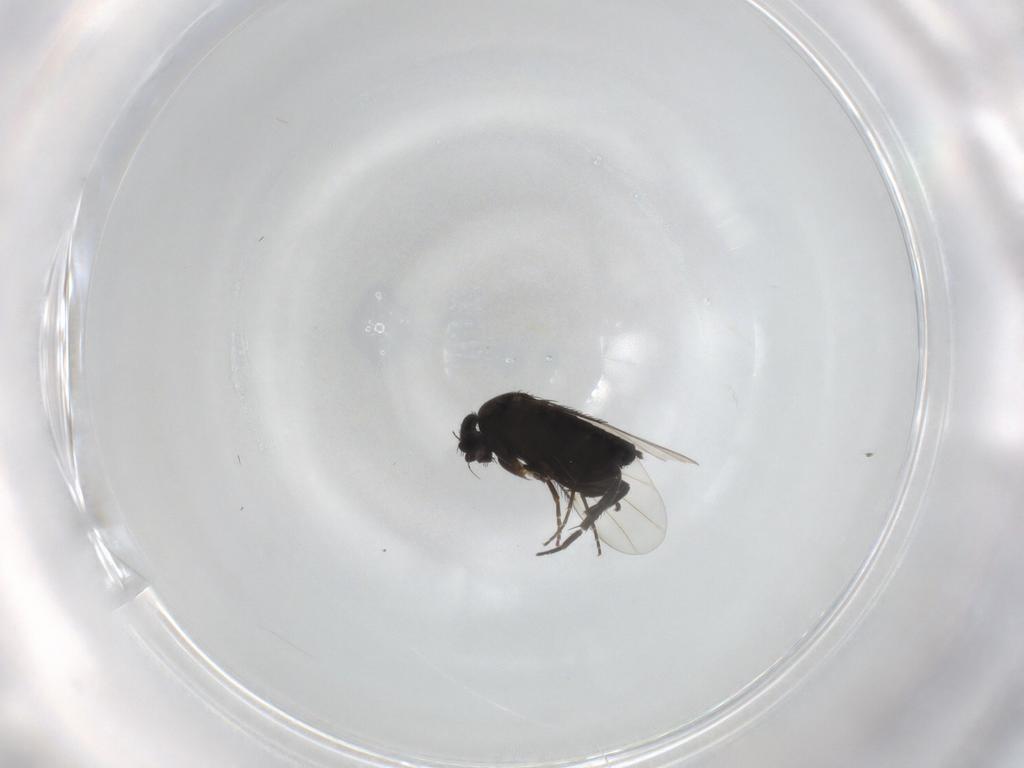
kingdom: Animalia
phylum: Arthropoda
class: Insecta
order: Diptera
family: Phoridae
